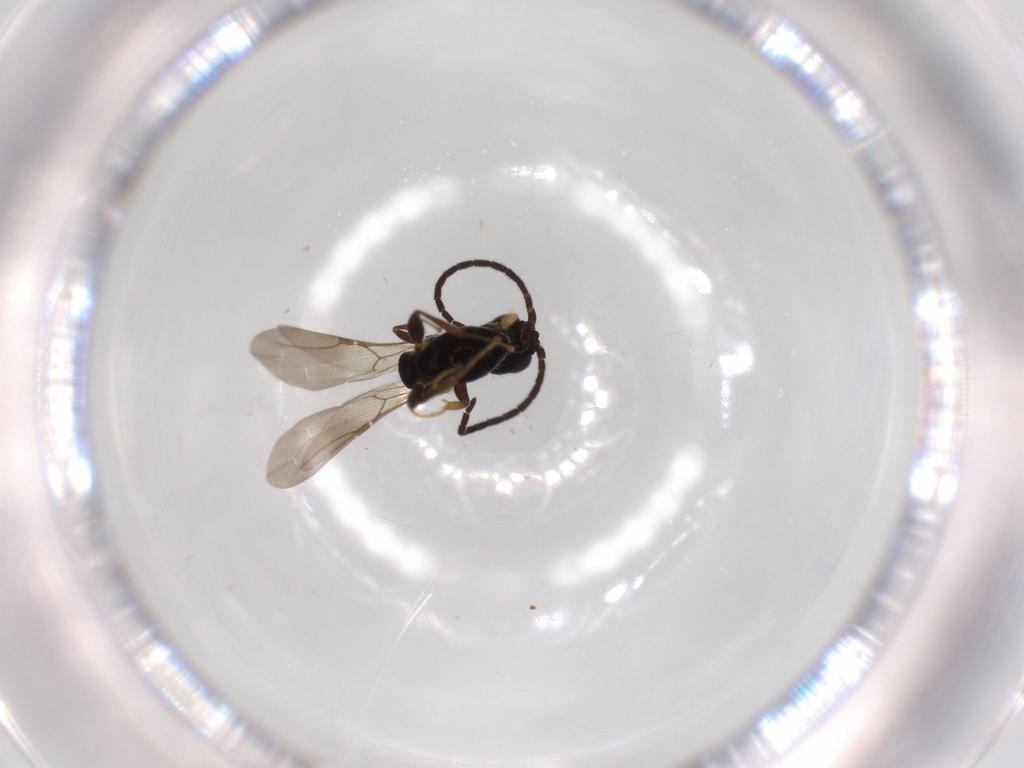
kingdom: Animalia
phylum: Arthropoda
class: Insecta
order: Hymenoptera
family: Bethylidae
